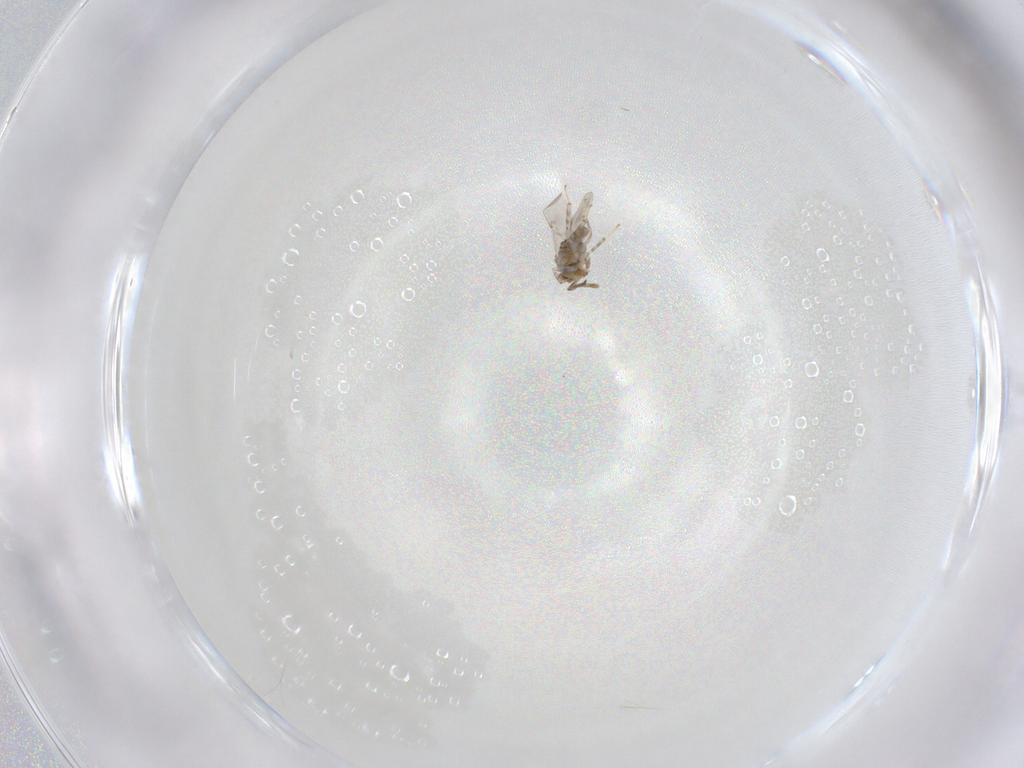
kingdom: Animalia
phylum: Arthropoda
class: Insecta
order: Hymenoptera
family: Encyrtidae
